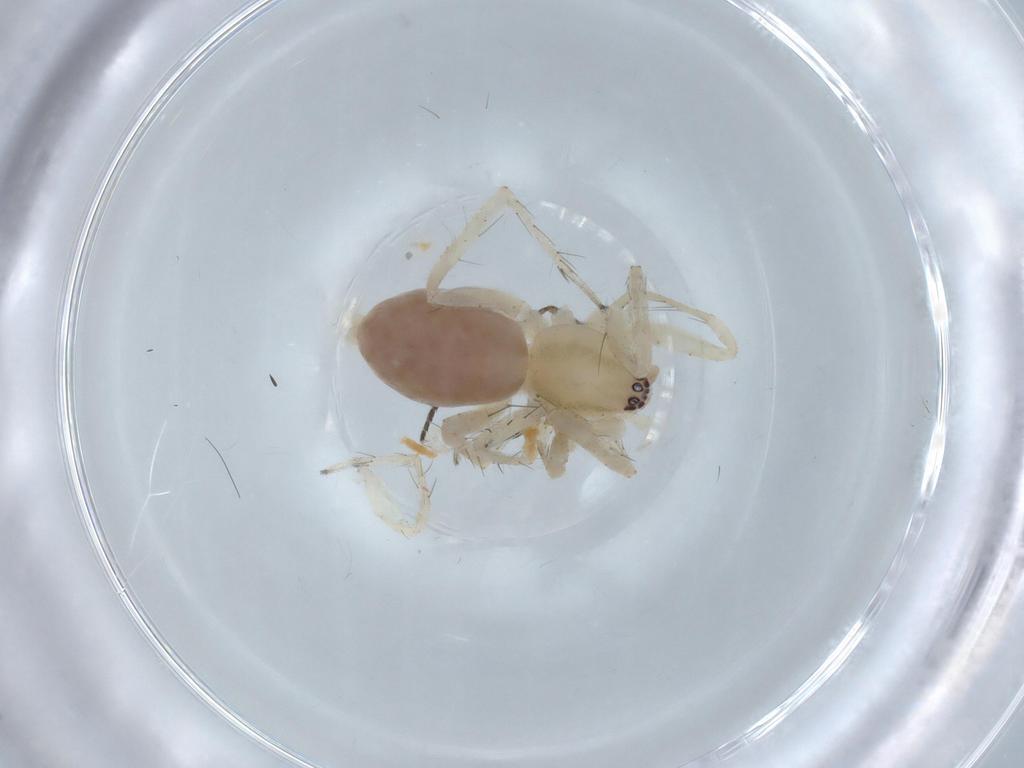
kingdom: Animalia
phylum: Arthropoda
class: Arachnida
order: Araneae
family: Anyphaenidae
